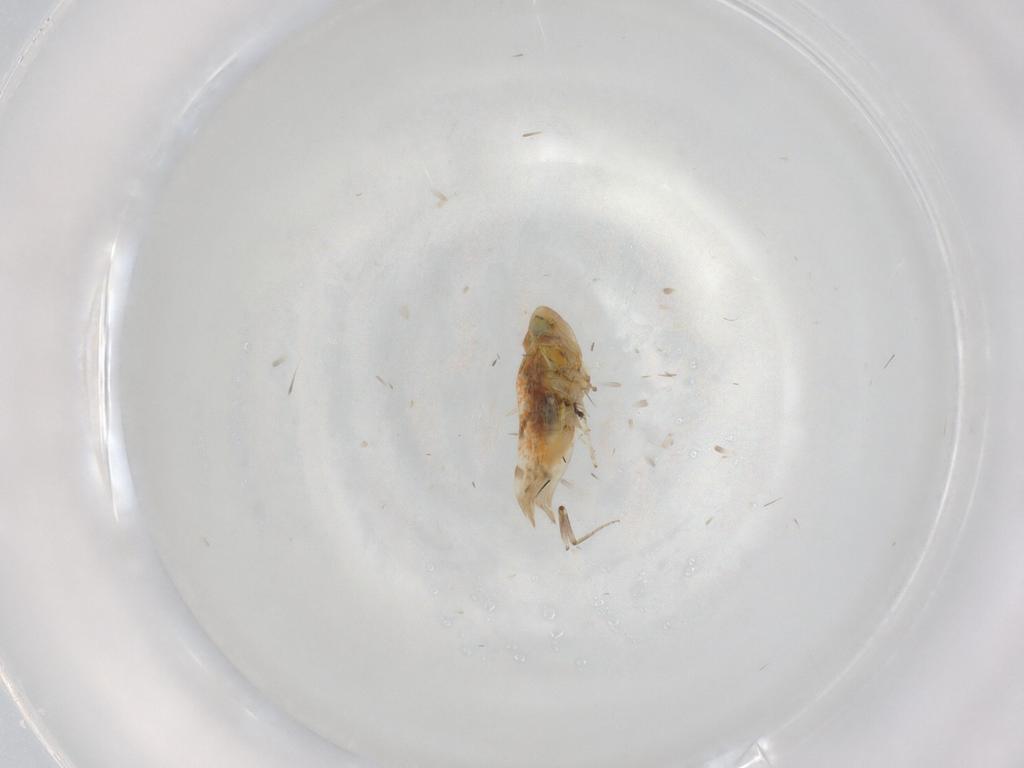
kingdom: Animalia
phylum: Arthropoda
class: Insecta
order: Hemiptera
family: Cicadellidae
